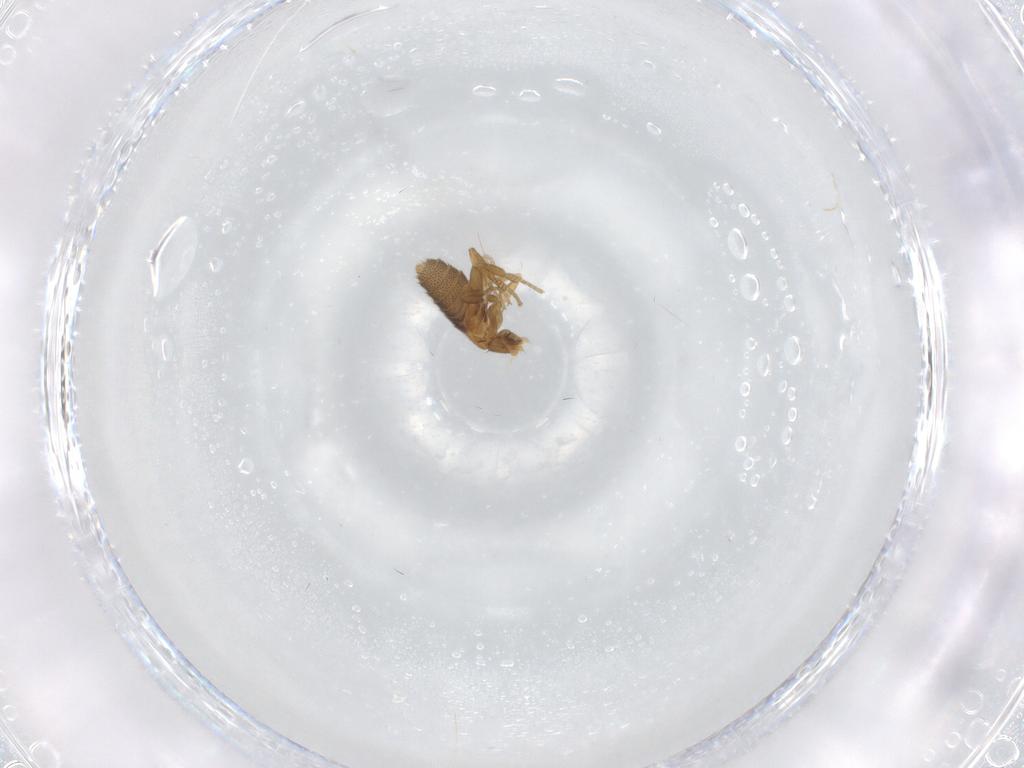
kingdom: Animalia
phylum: Arthropoda
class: Insecta
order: Diptera
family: Phoridae
